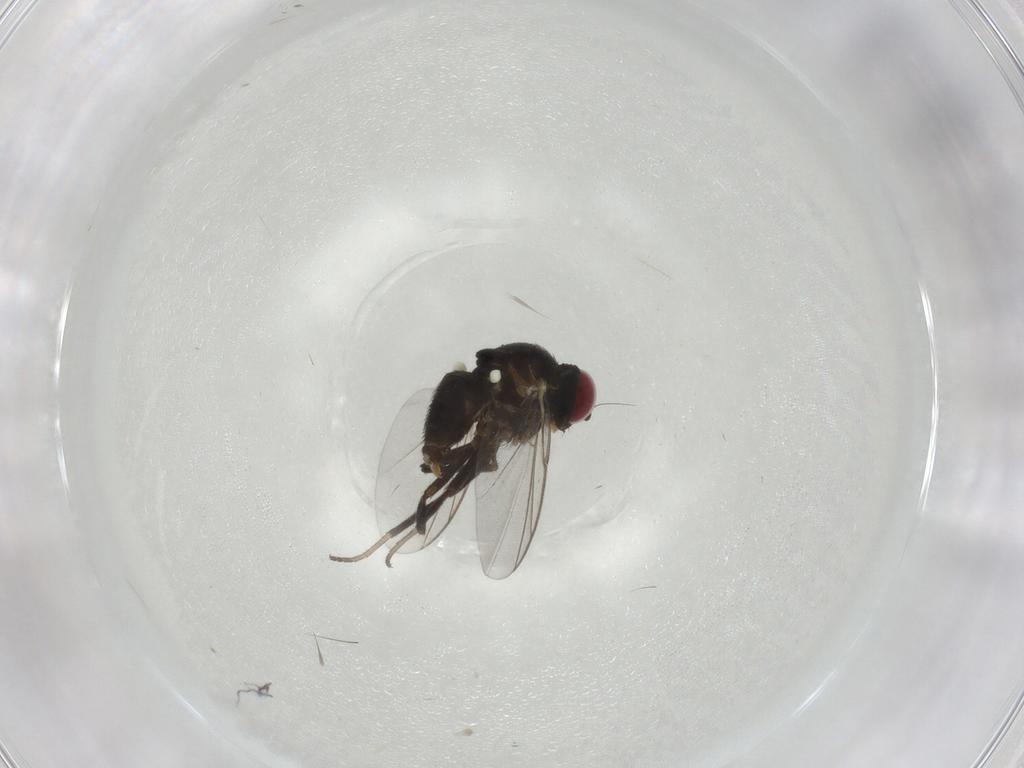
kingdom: Animalia
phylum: Arthropoda
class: Insecta
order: Diptera
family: Agromyzidae
